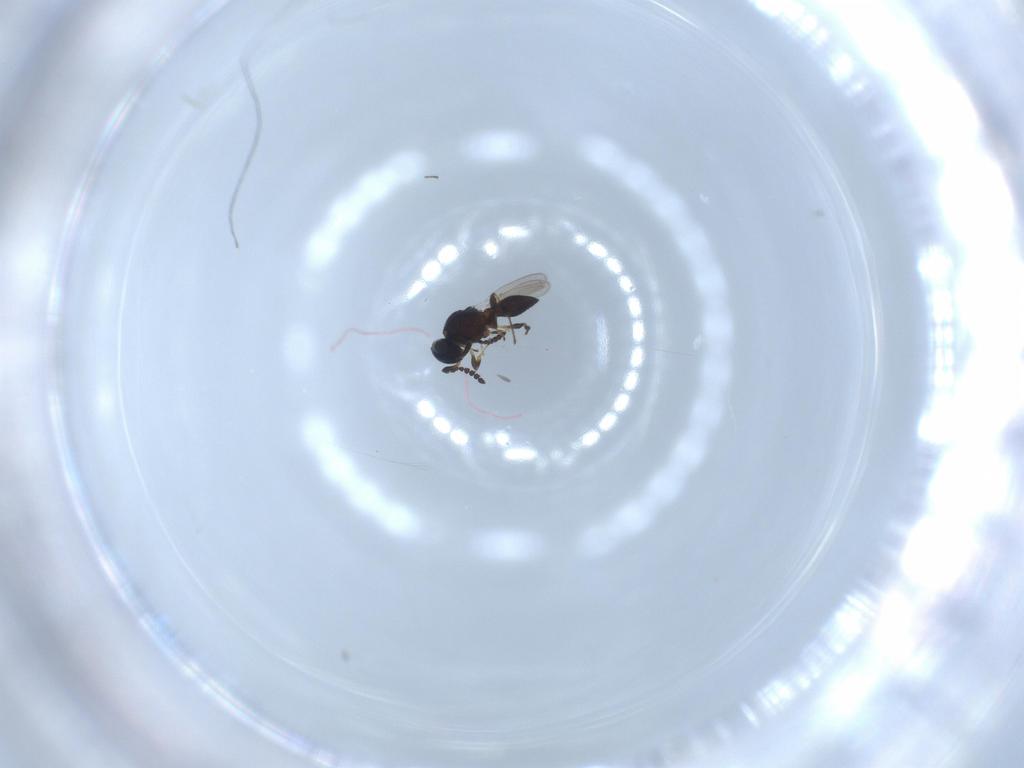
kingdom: Animalia
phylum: Arthropoda
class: Insecta
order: Hymenoptera
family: Platygastridae
